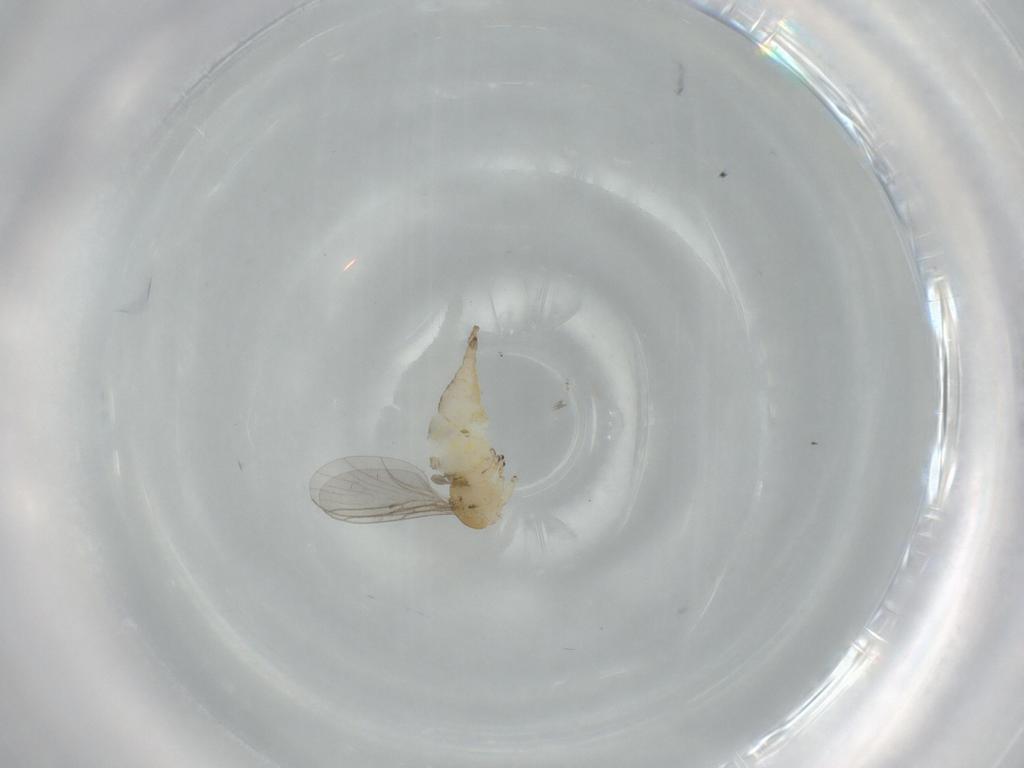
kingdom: Animalia
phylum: Arthropoda
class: Insecta
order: Diptera
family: Sciaridae
